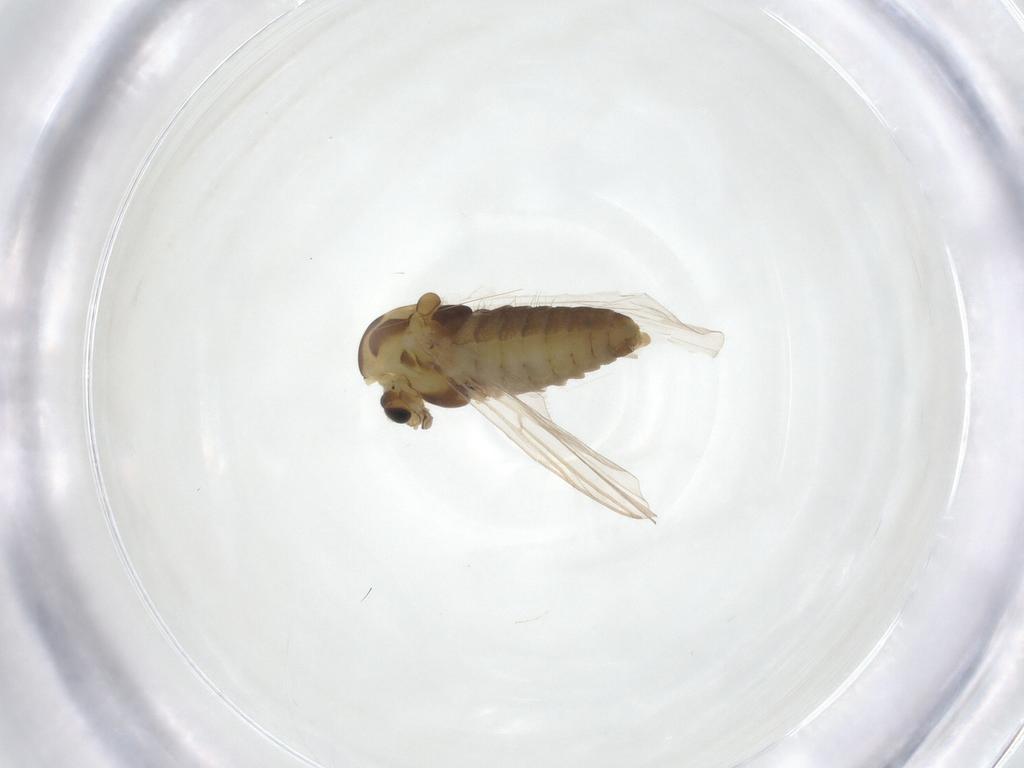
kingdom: Animalia
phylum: Arthropoda
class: Insecta
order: Diptera
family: Chironomidae
